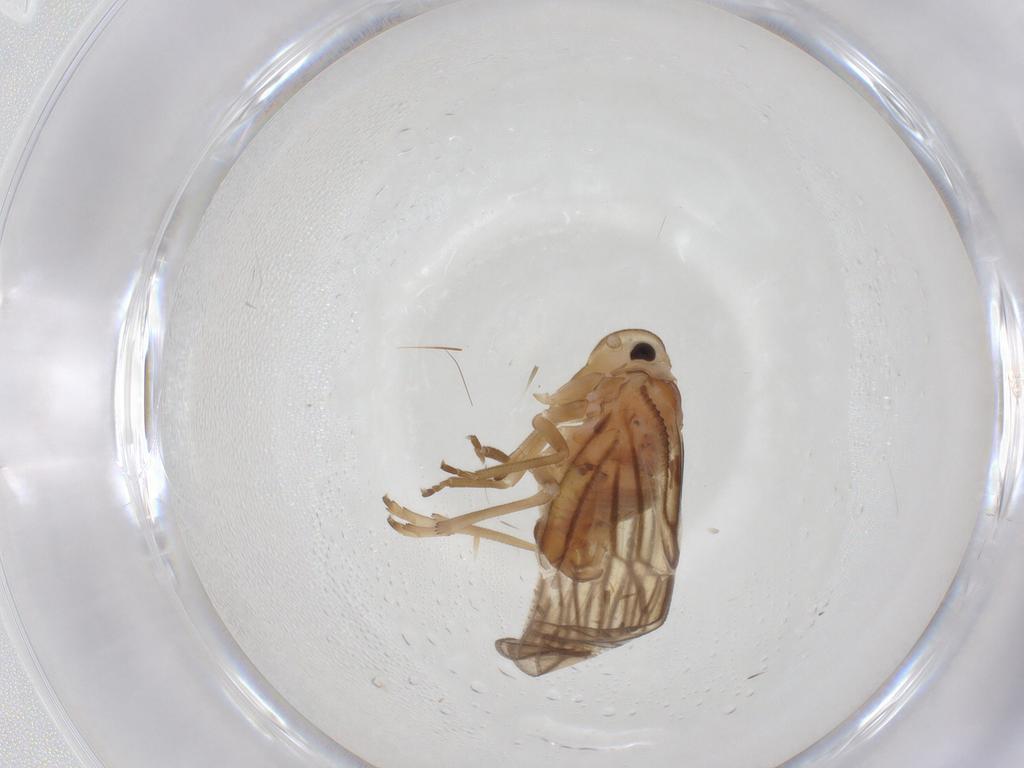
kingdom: Animalia
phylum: Arthropoda
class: Insecta
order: Hemiptera
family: Meenoplidae
